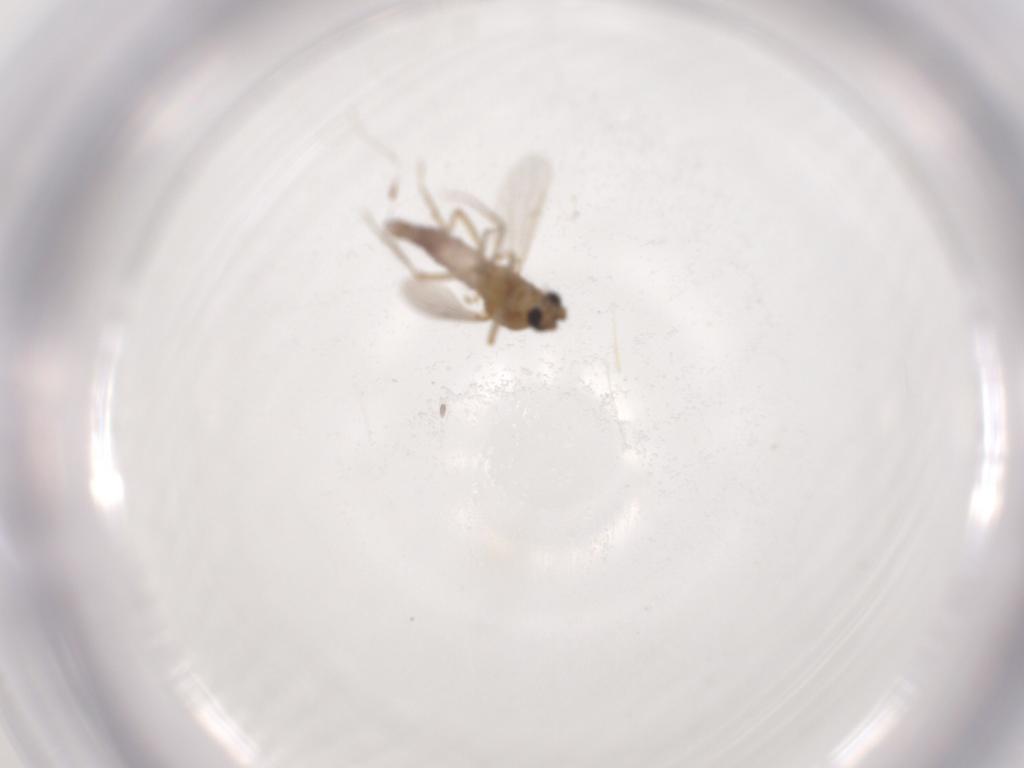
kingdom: Animalia
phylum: Arthropoda
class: Insecta
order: Diptera
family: Ceratopogonidae
